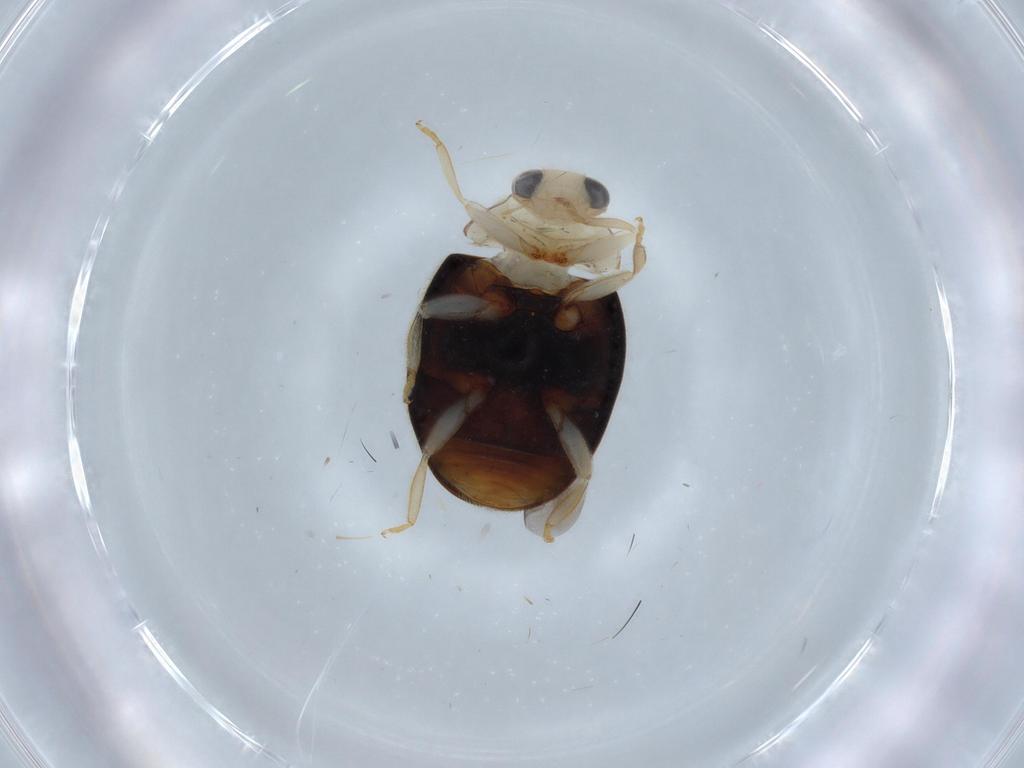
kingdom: Animalia
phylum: Arthropoda
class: Insecta
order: Coleoptera
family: Coccinellidae
